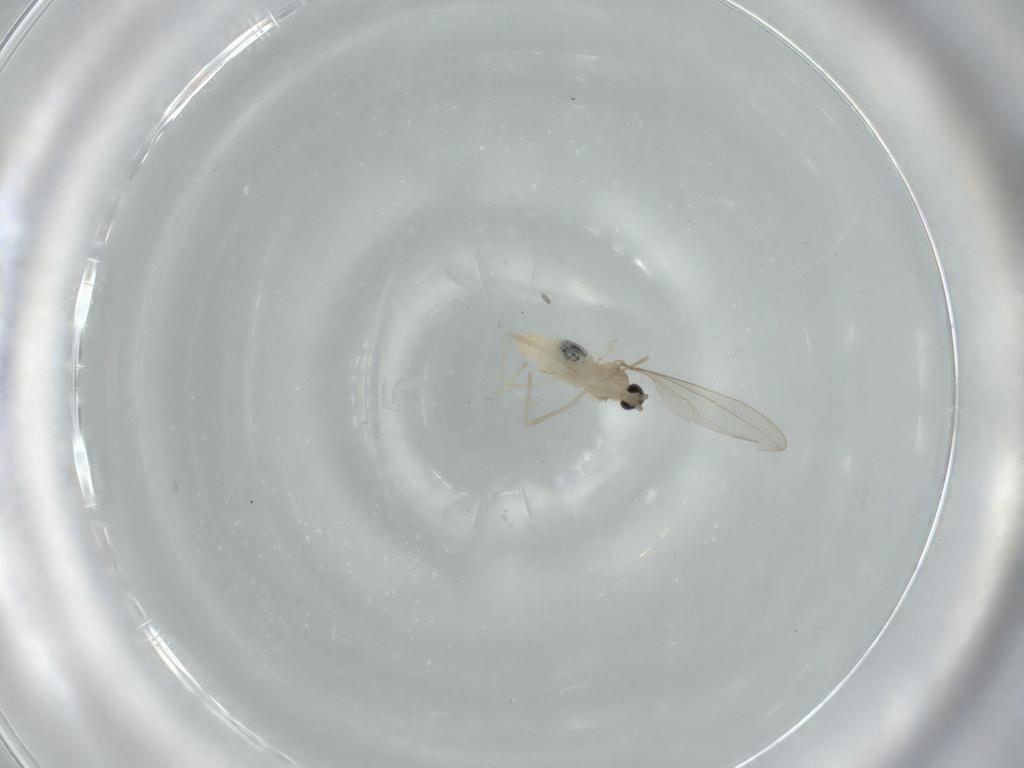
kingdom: Animalia
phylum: Arthropoda
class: Insecta
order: Diptera
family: Cecidomyiidae
